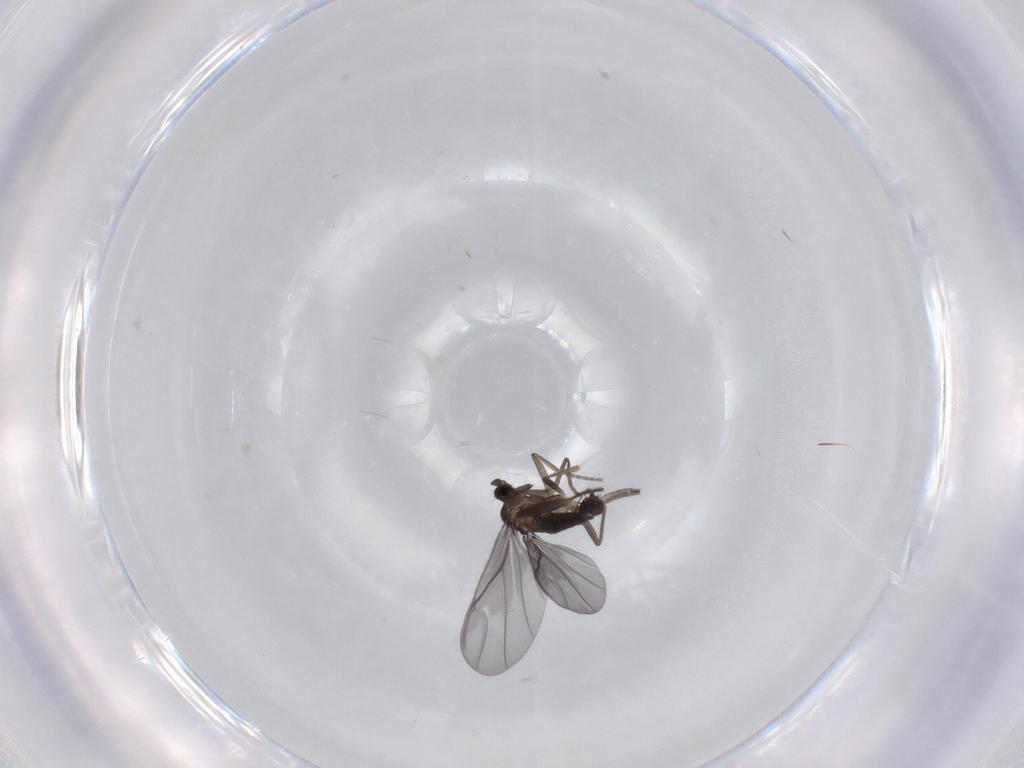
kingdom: Animalia
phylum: Arthropoda
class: Insecta
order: Diptera
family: Phoridae
